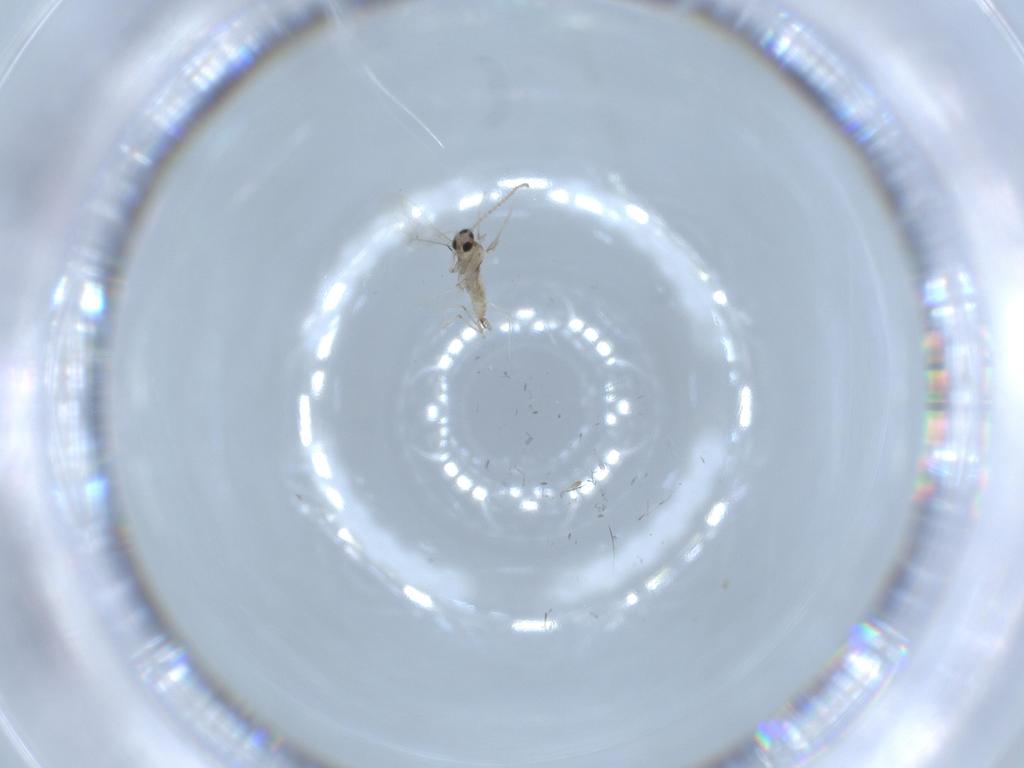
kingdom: Animalia
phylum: Arthropoda
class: Insecta
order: Diptera
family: Cecidomyiidae
